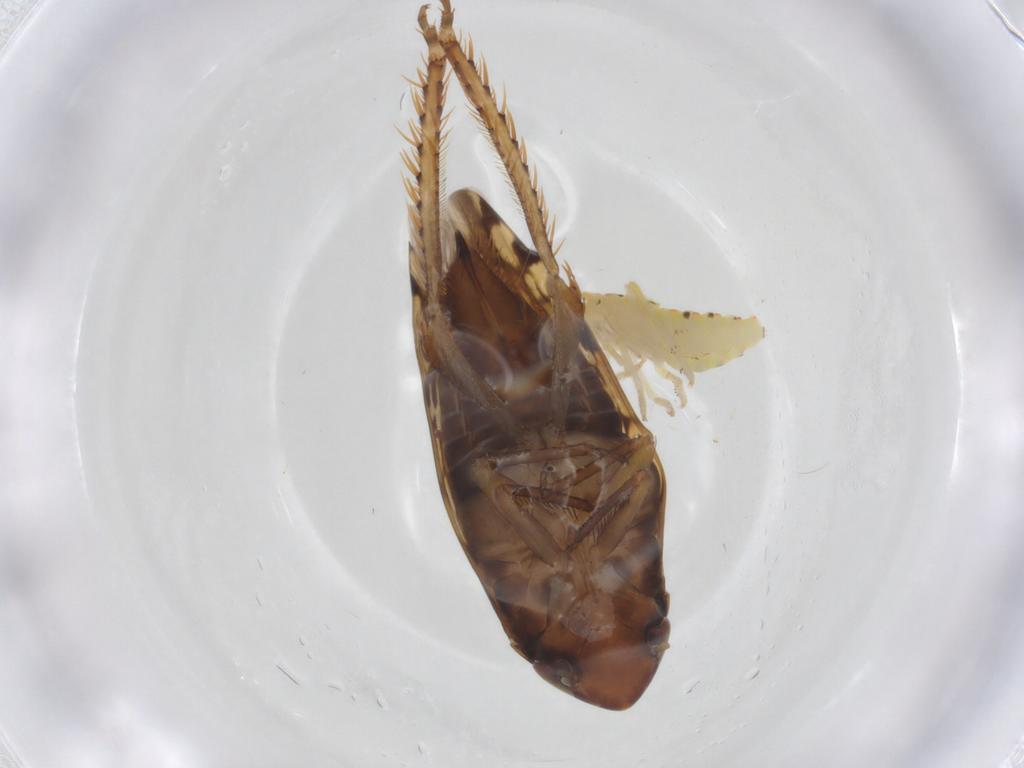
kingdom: Animalia
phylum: Arthropoda
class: Insecta
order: Hemiptera
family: Tropiduchidae
